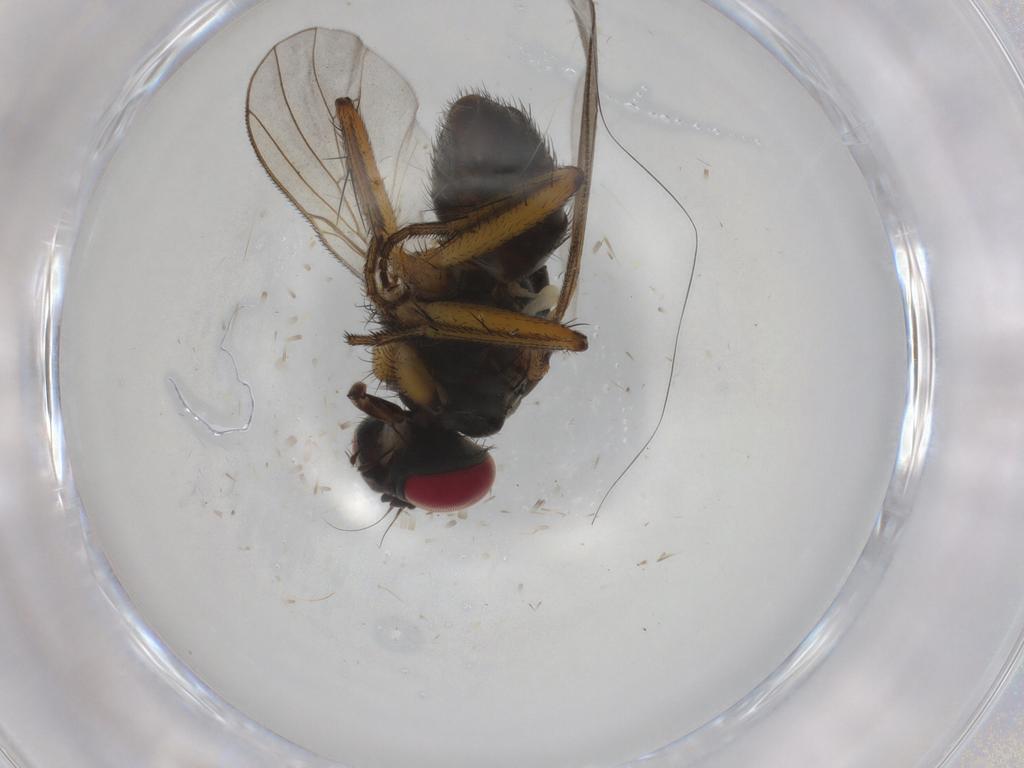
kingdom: Animalia
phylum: Arthropoda
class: Insecta
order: Diptera
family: Muscidae
